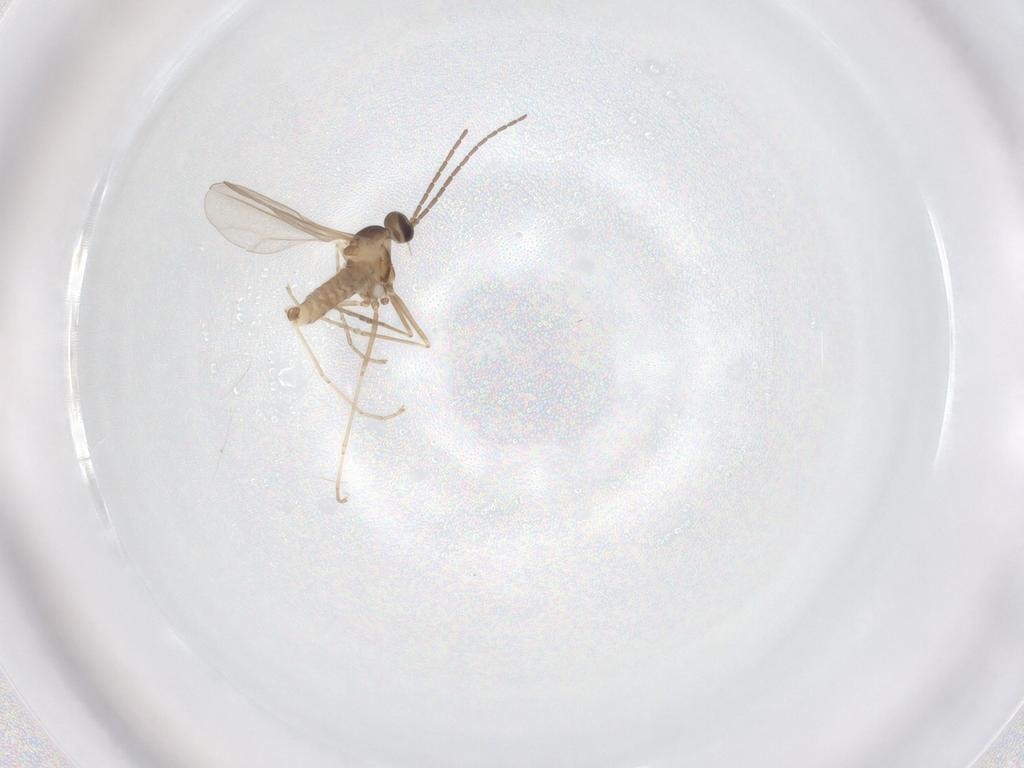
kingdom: Animalia
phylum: Arthropoda
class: Insecta
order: Diptera
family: Cecidomyiidae
